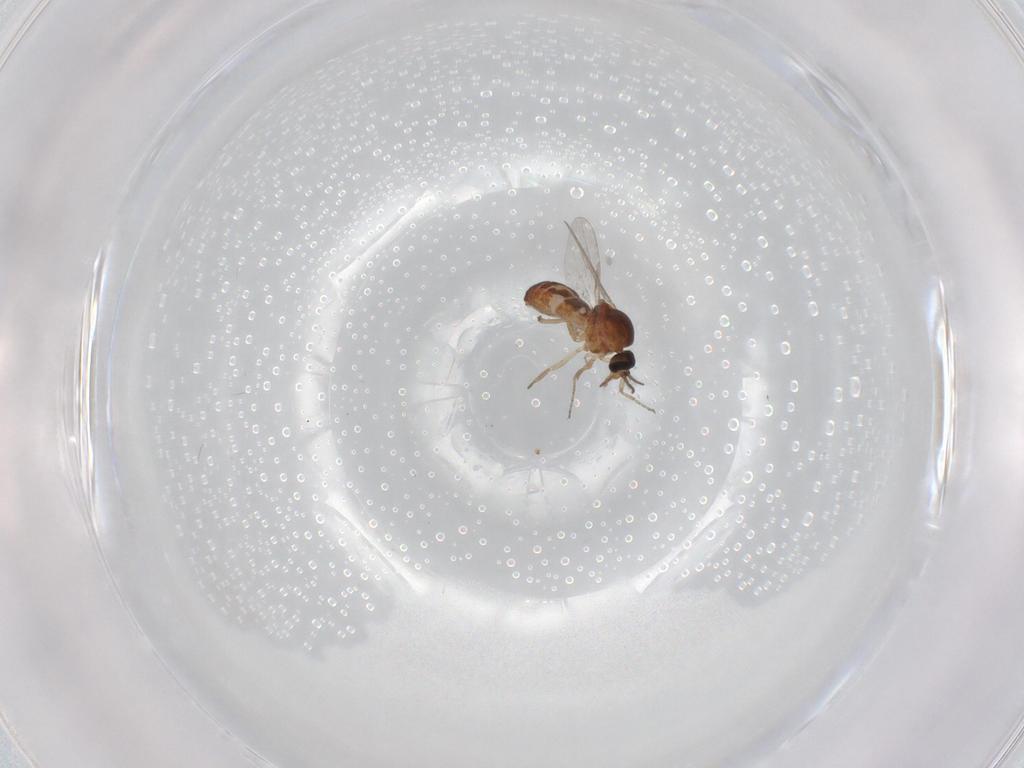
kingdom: Animalia
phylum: Arthropoda
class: Insecta
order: Diptera
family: Ceratopogonidae
